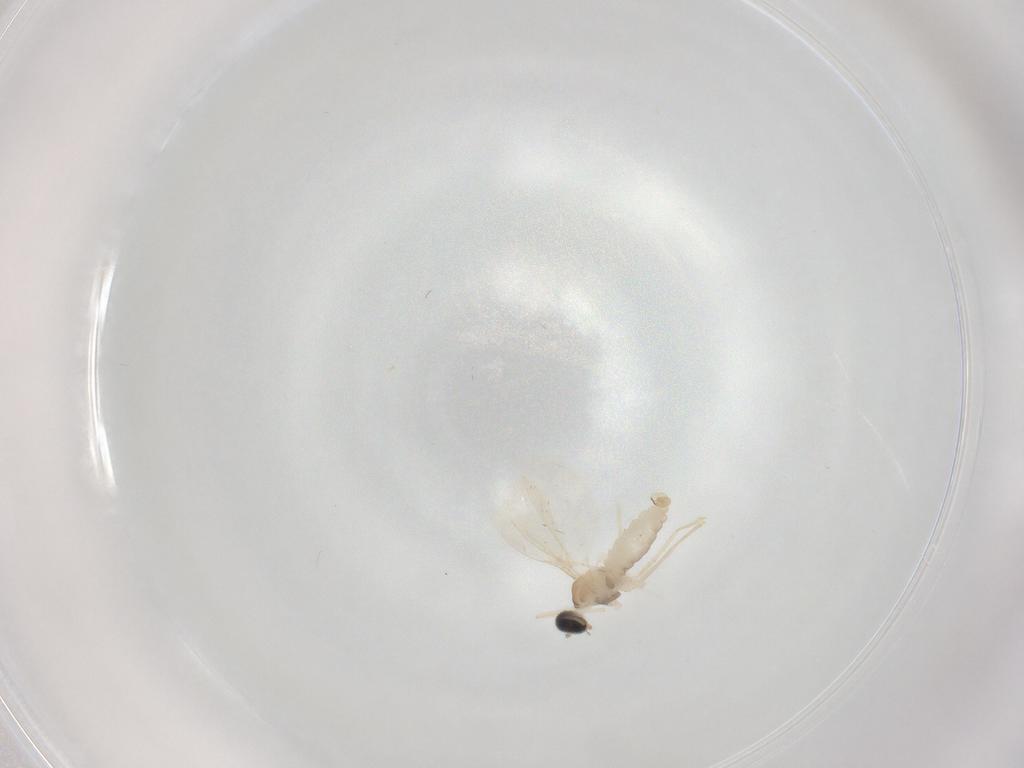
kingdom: Animalia
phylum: Arthropoda
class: Insecta
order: Diptera
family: Cecidomyiidae
